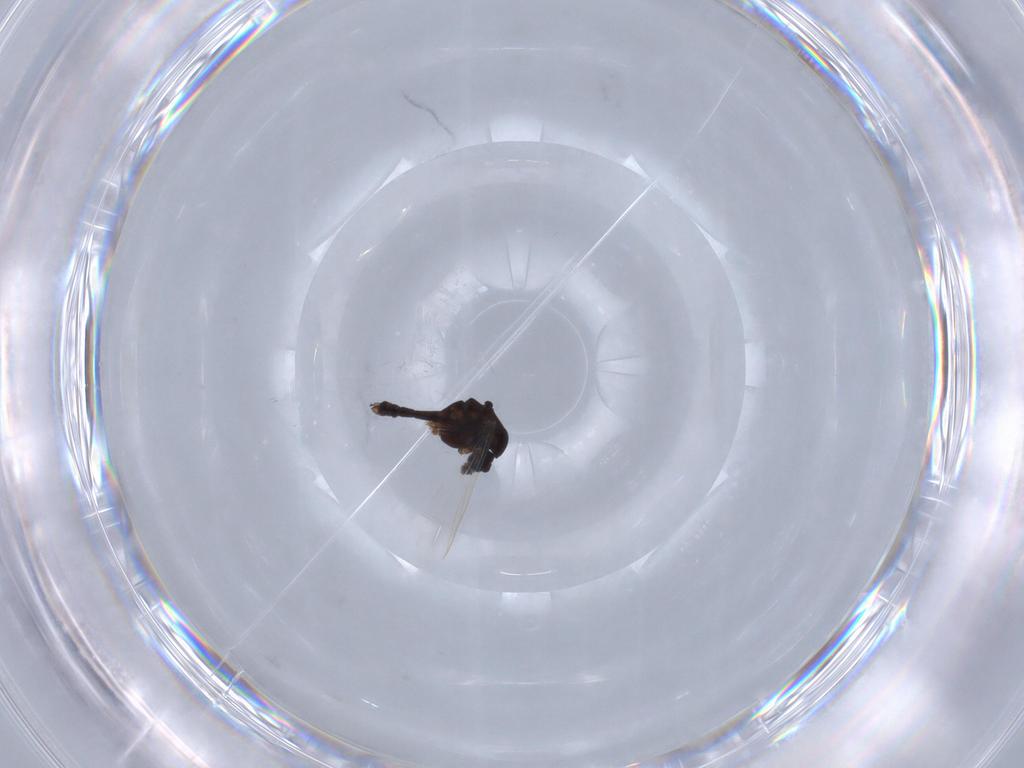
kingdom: Animalia
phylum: Arthropoda
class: Insecta
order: Diptera
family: Chironomidae
